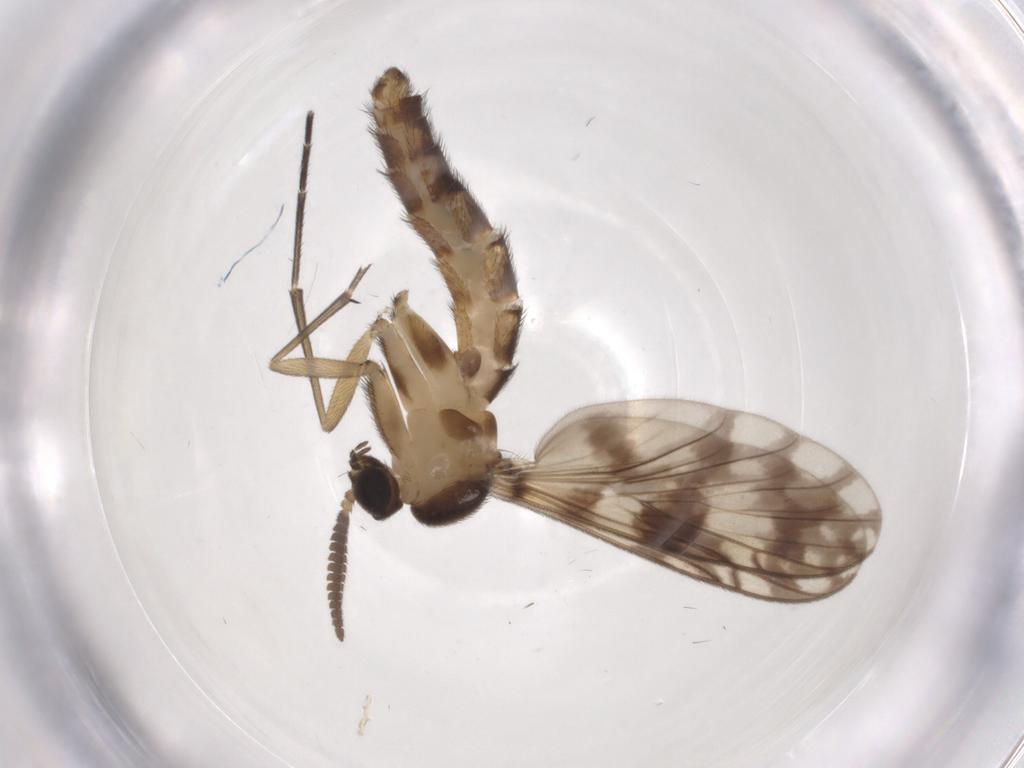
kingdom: Animalia
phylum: Arthropoda
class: Insecta
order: Diptera
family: Keroplatidae
